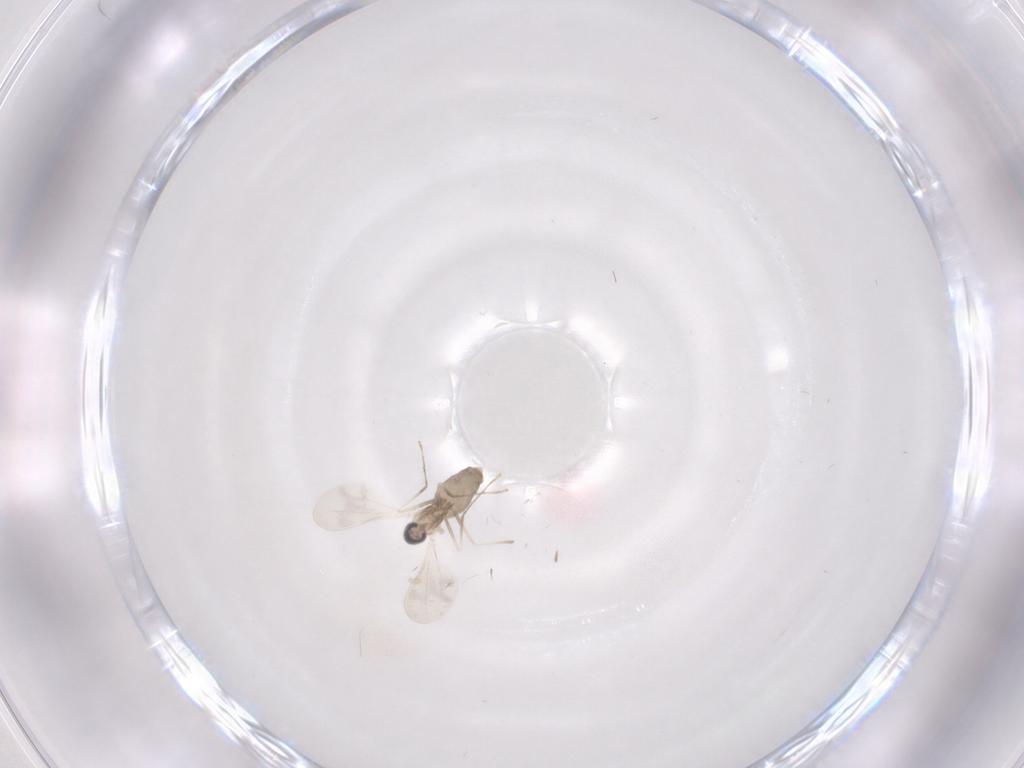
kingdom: Animalia
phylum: Arthropoda
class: Insecta
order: Diptera
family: Cecidomyiidae
